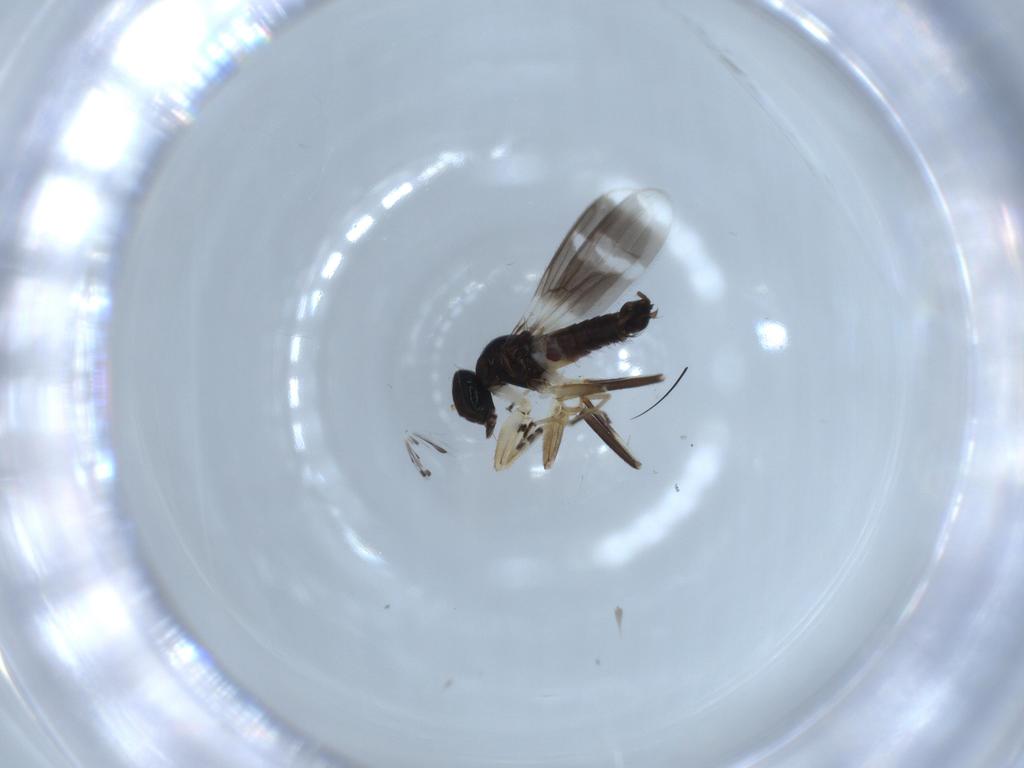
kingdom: Animalia
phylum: Arthropoda
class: Insecta
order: Diptera
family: Hybotidae
